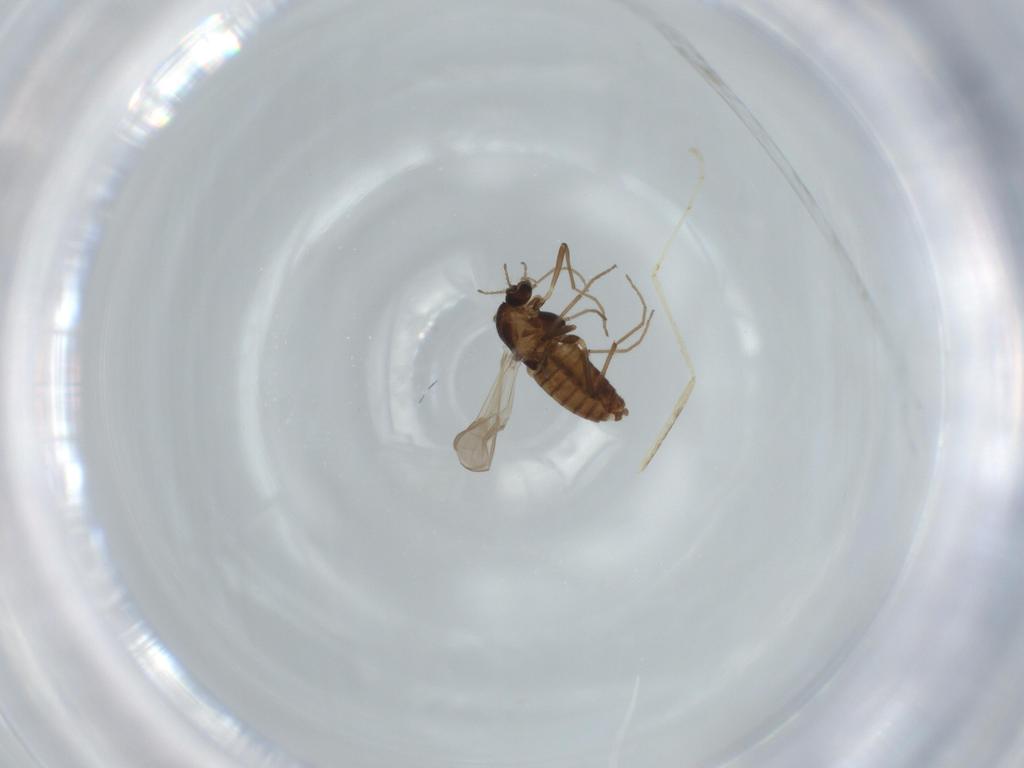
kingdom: Animalia
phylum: Arthropoda
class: Insecta
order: Diptera
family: Chironomidae
